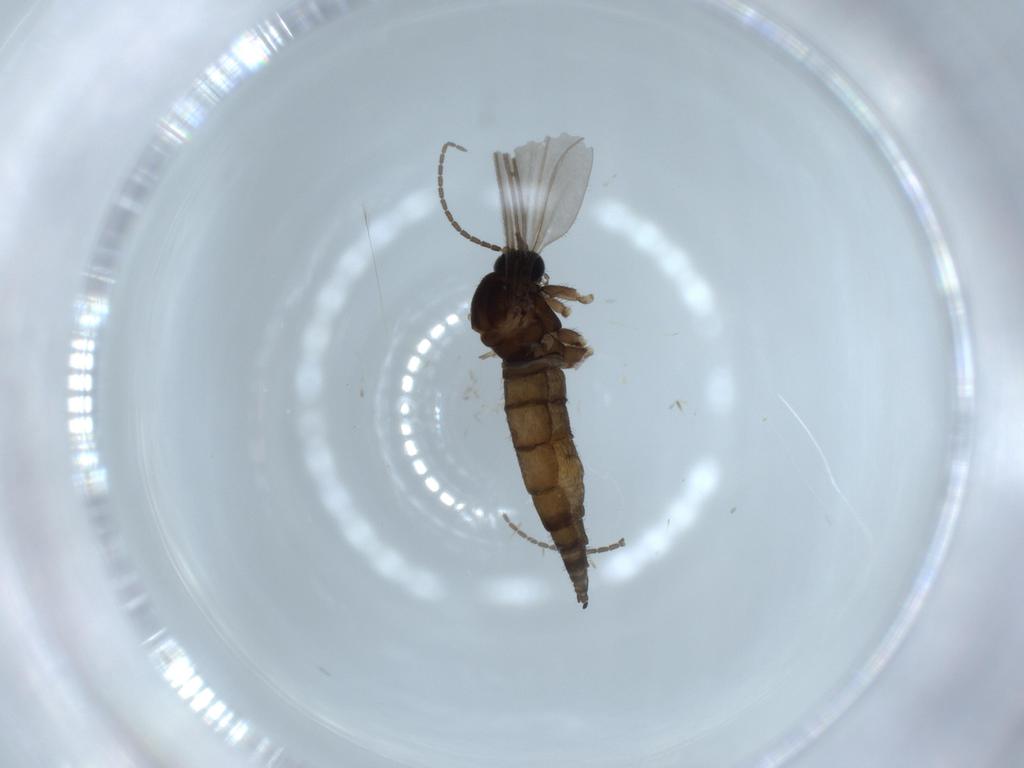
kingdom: Animalia
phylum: Arthropoda
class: Insecta
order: Diptera
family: Sciaridae
